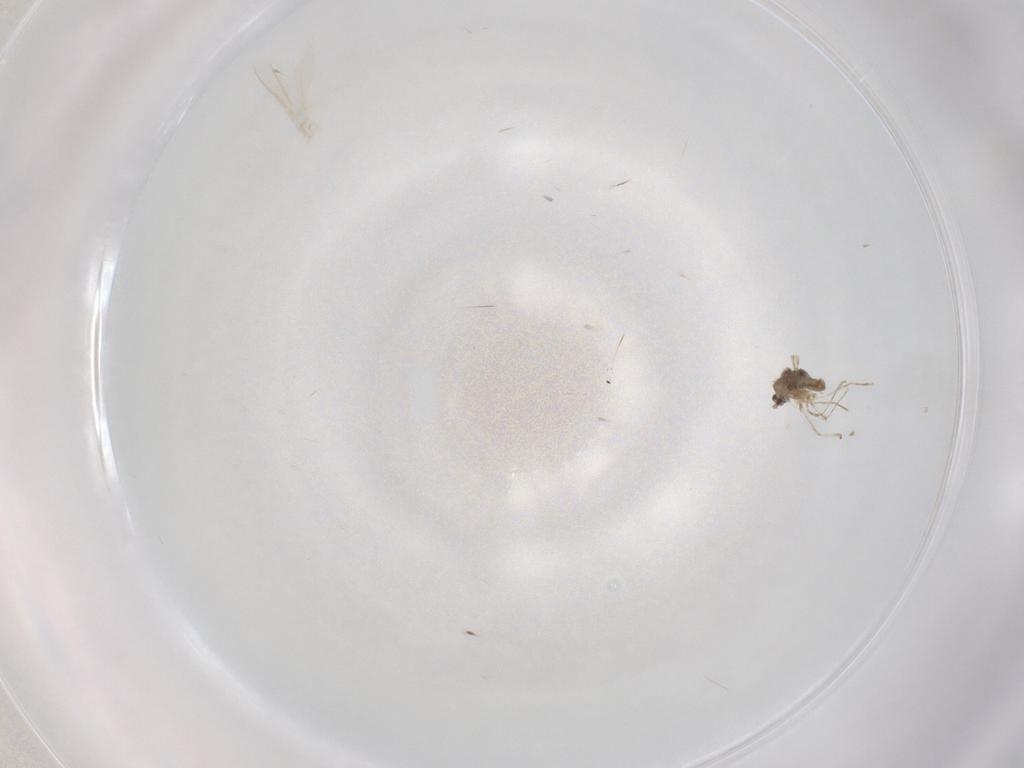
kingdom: Animalia
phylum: Arthropoda
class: Insecta
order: Diptera
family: Cecidomyiidae
